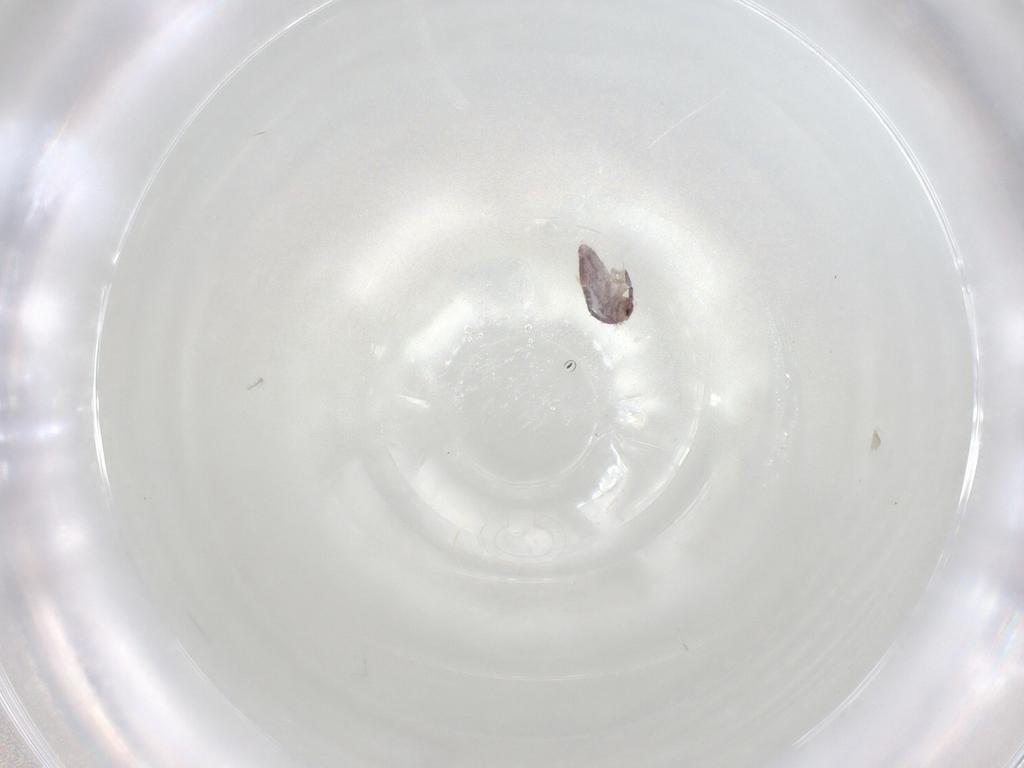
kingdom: Animalia
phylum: Arthropoda
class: Collembola
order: Entomobryomorpha
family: Entomobryidae
